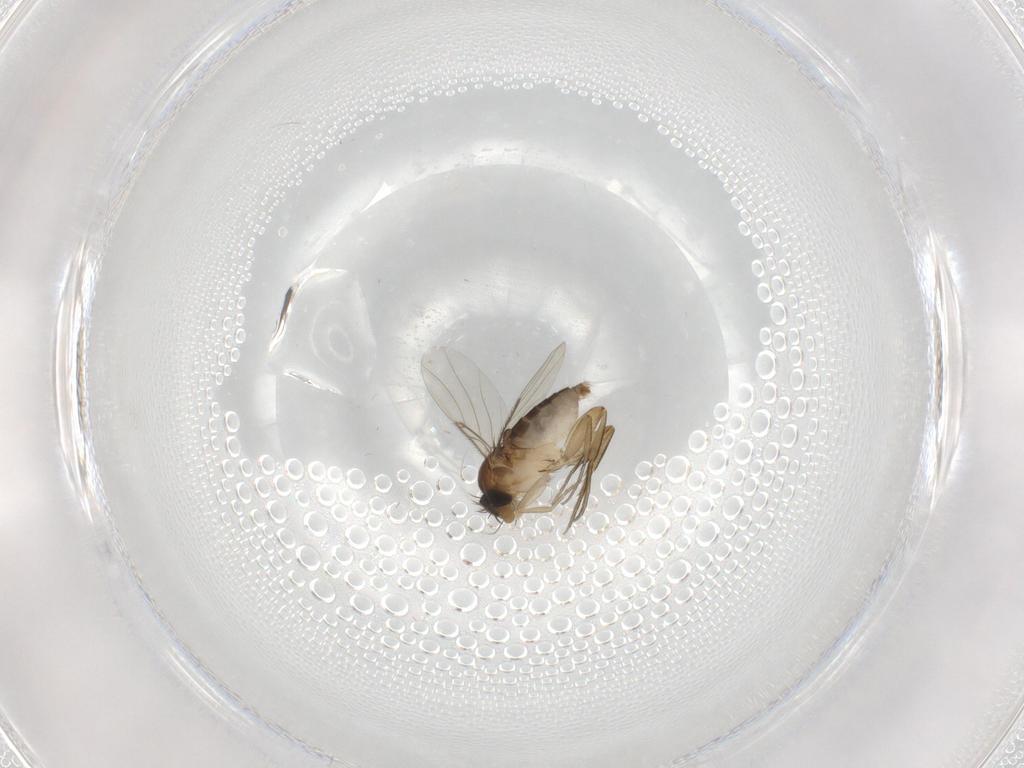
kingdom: Animalia
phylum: Arthropoda
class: Insecta
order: Diptera
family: Phoridae
